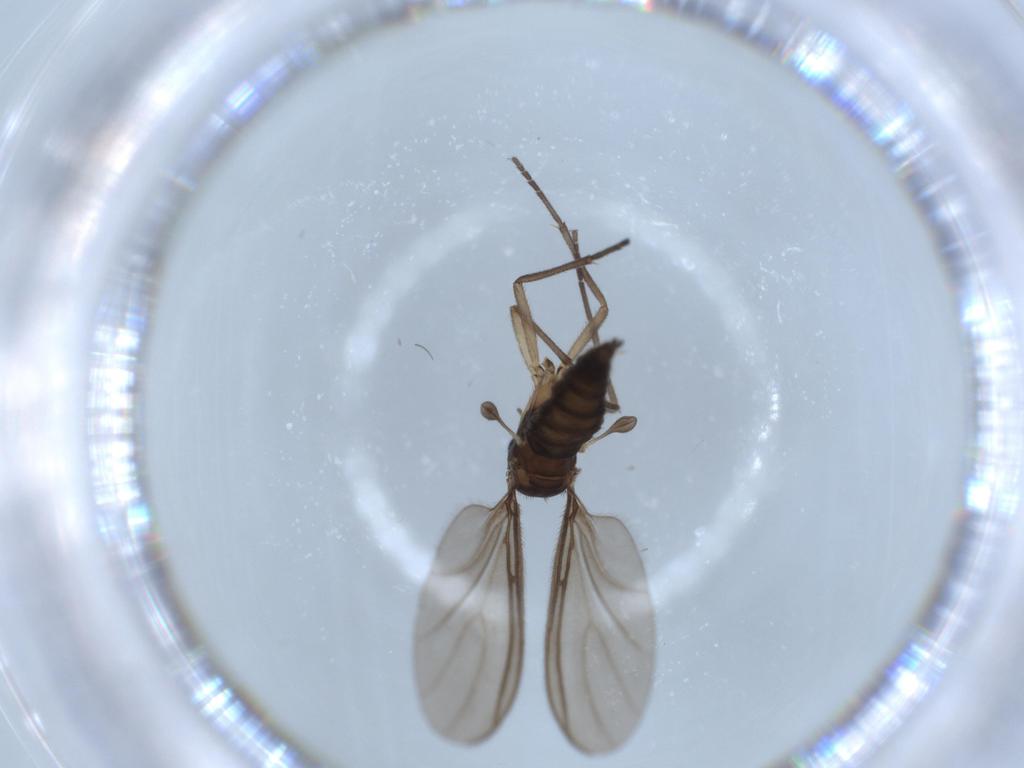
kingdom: Animalia
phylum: Arthropoda
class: Insecta
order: Diptera
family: Sciaridae
